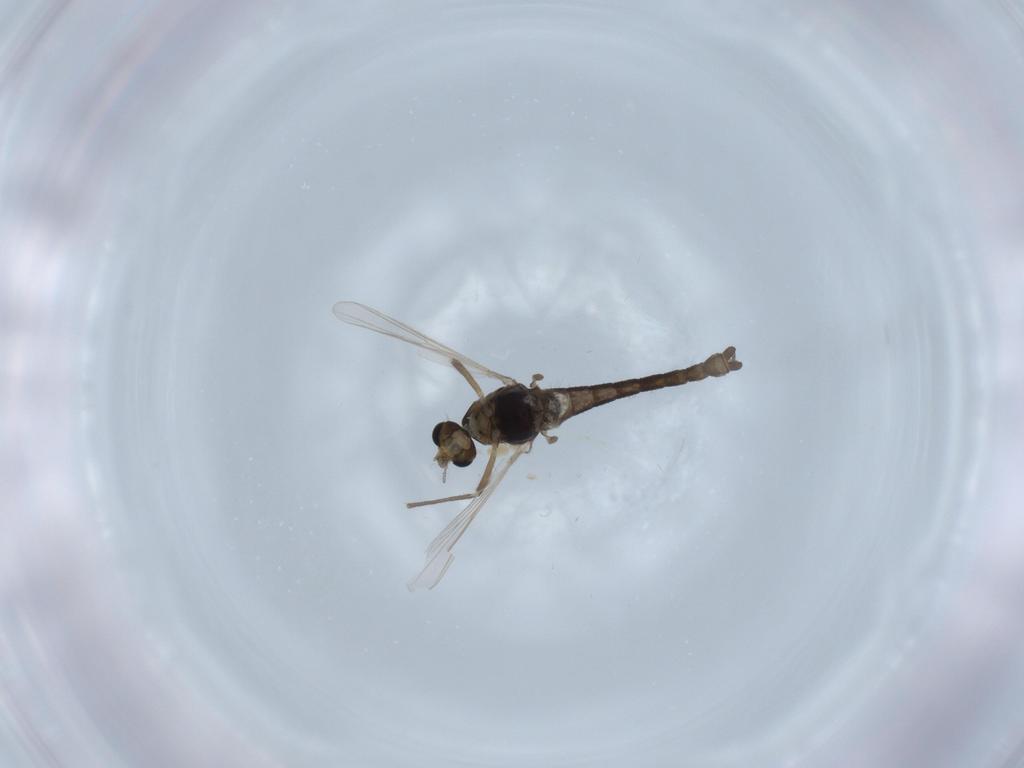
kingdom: Animalia
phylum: Arthropoda
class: Insecta
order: Diptera
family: Chironomidae
